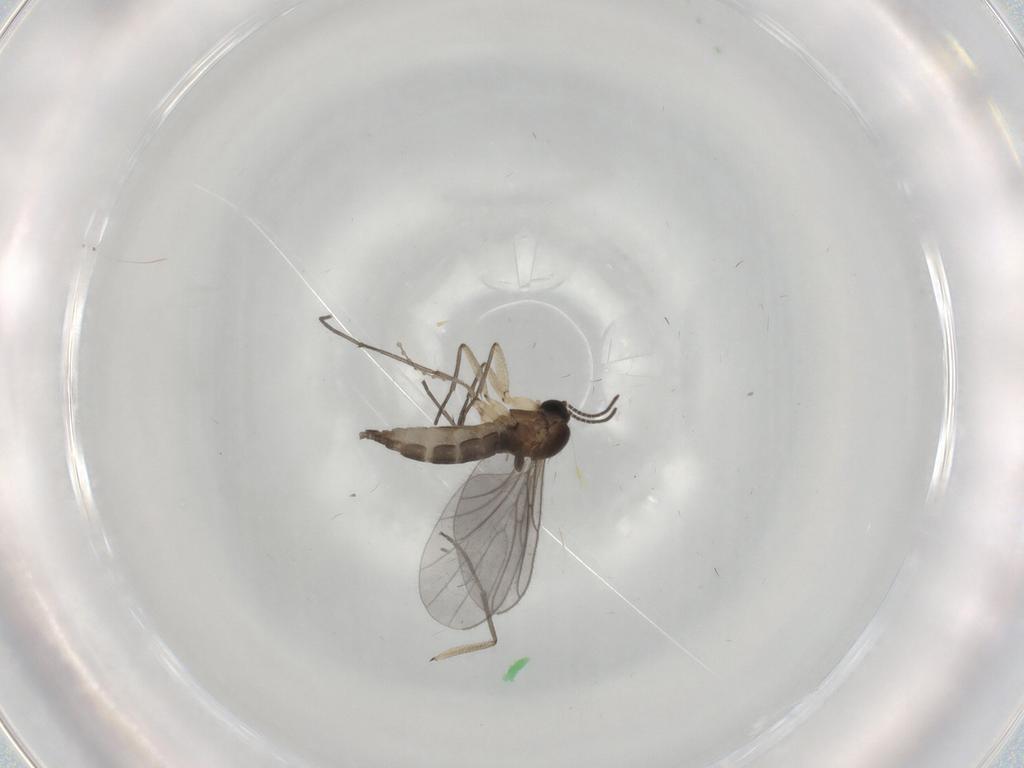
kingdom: Animalia
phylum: Arthropoda
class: Insecta
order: Diptera
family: Sciaridae
